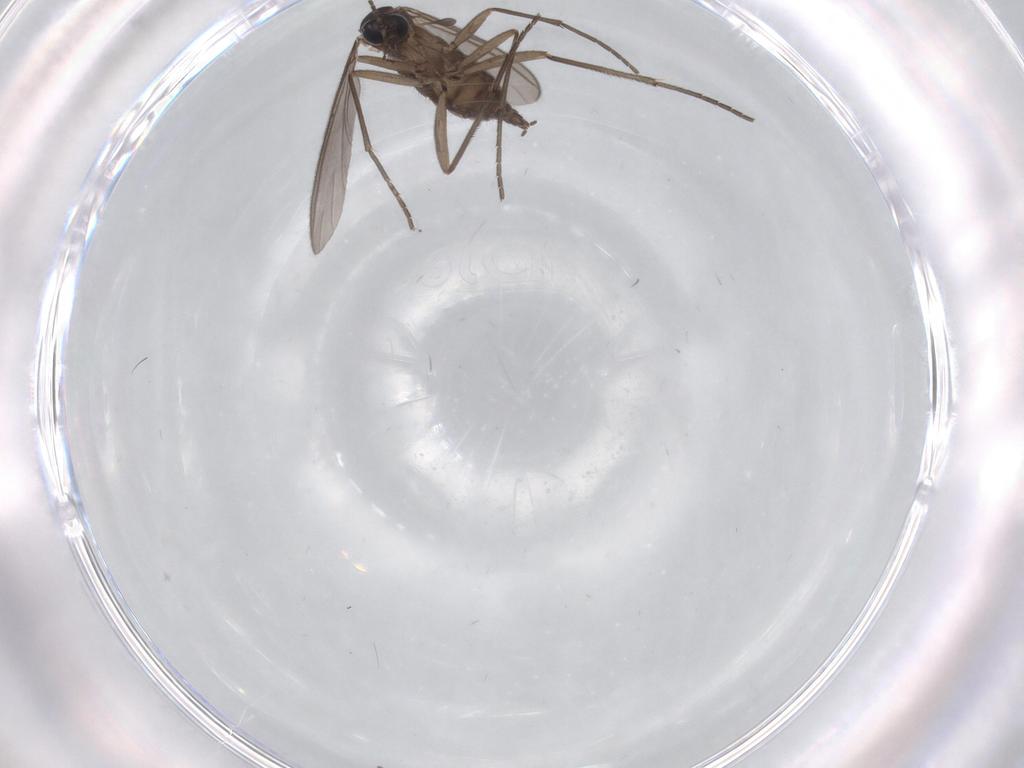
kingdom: Animalia
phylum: Arthropoda
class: Insecta
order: Diptera
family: Sciaridae
